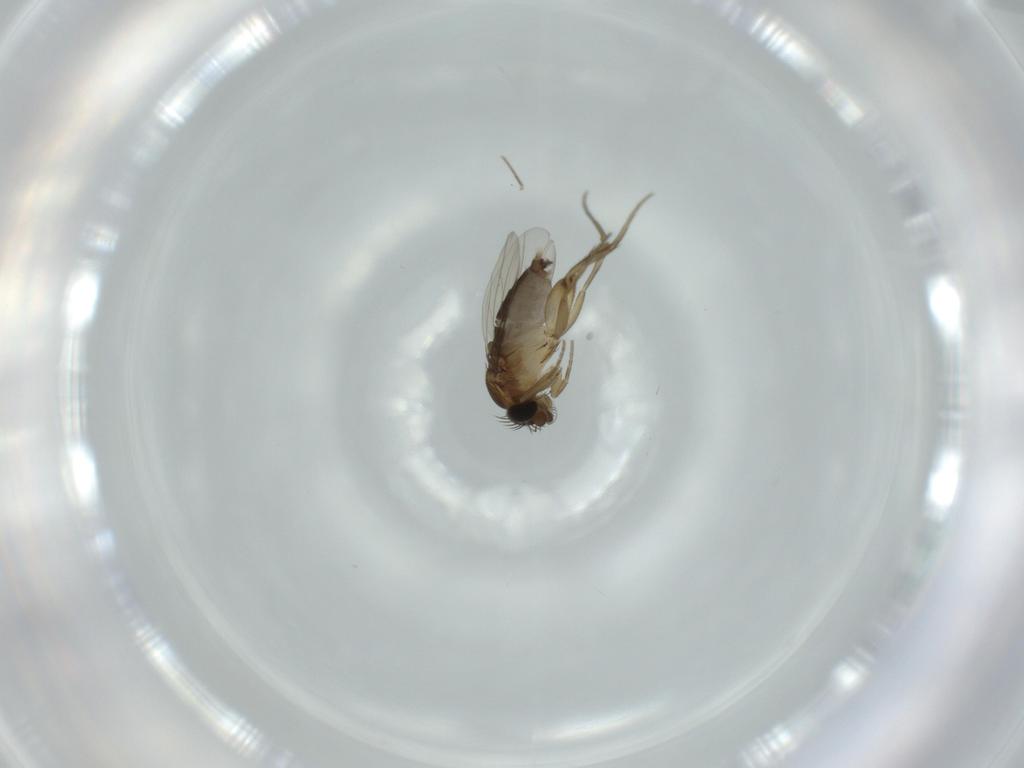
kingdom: Animalia
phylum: Arthropoda
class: Insecta
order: Diptera
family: Phoridae
